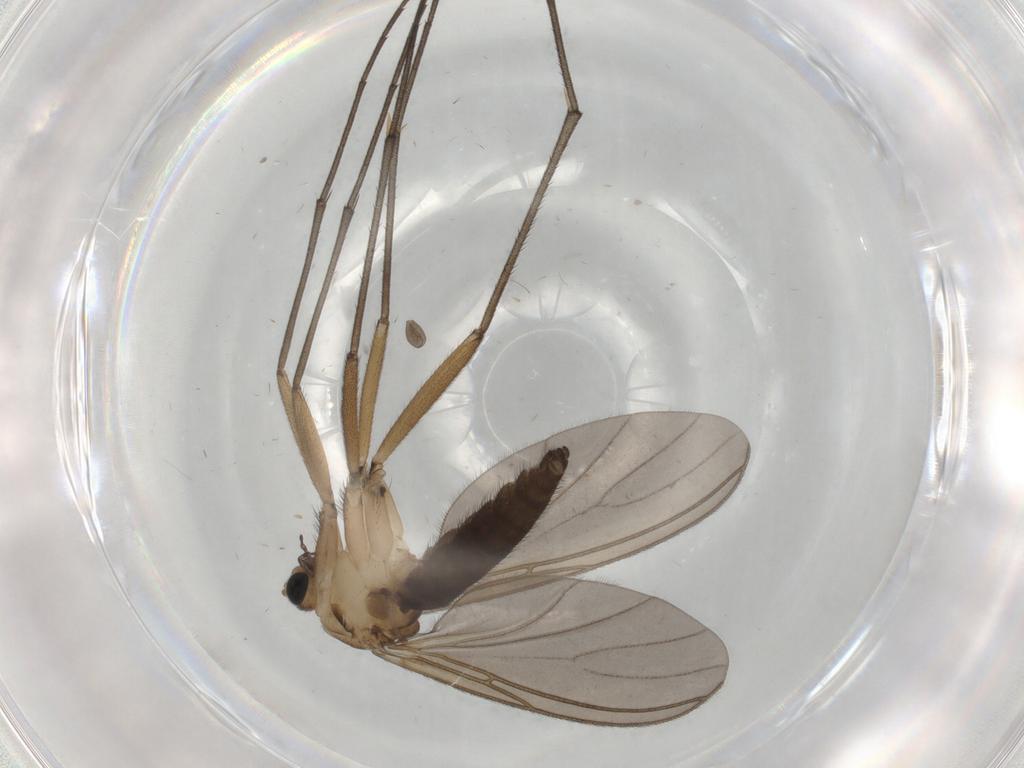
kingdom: Animalia
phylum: Arthropoda
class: Insecta
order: Diptera
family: Sciaridae
